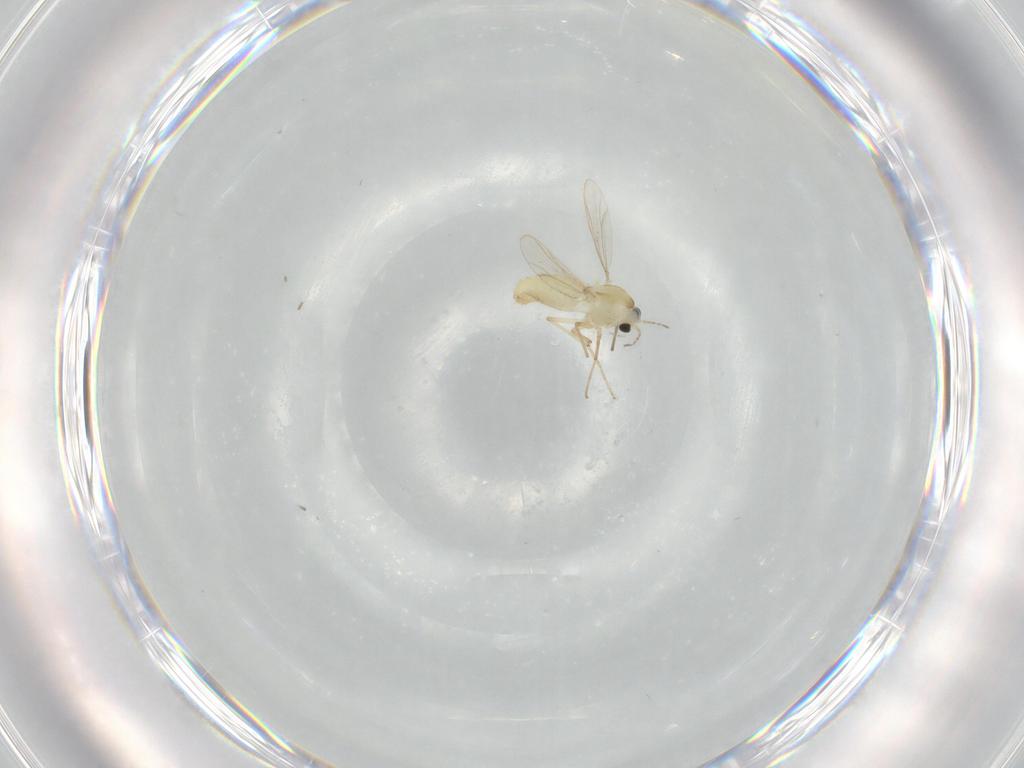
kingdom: Animalia
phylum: Arthropoda
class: Insecta
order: Diptera
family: Chironomidae
